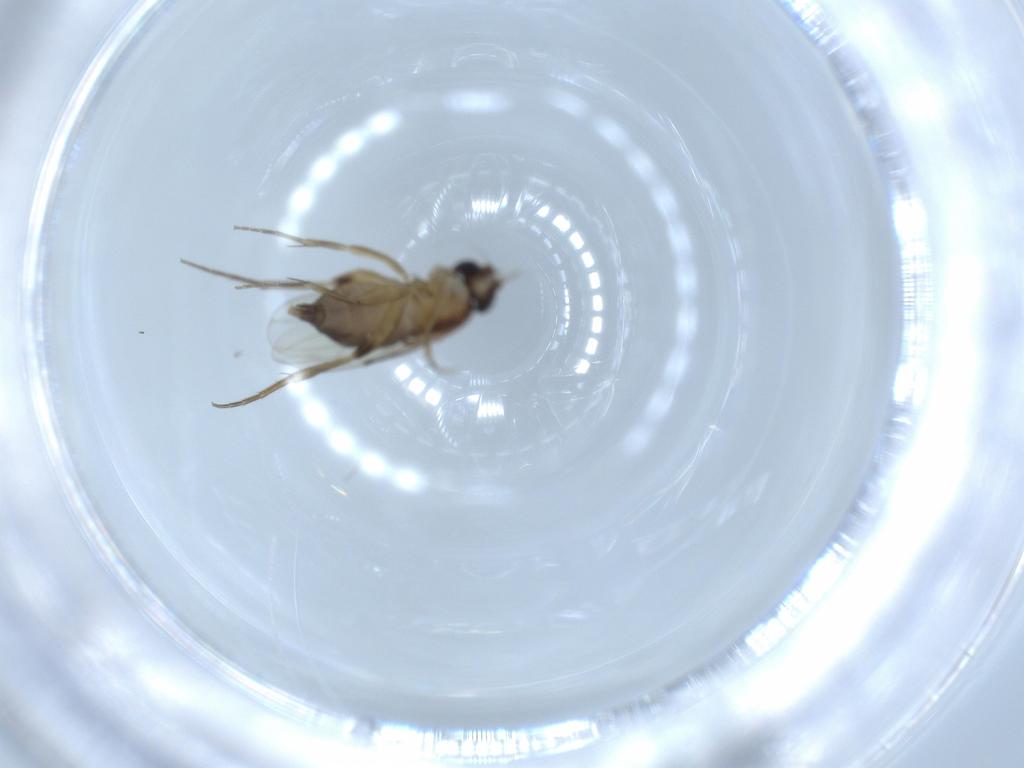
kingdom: Animalia
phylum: Arthropoda
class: Insecta
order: Diptera
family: Phoridae
